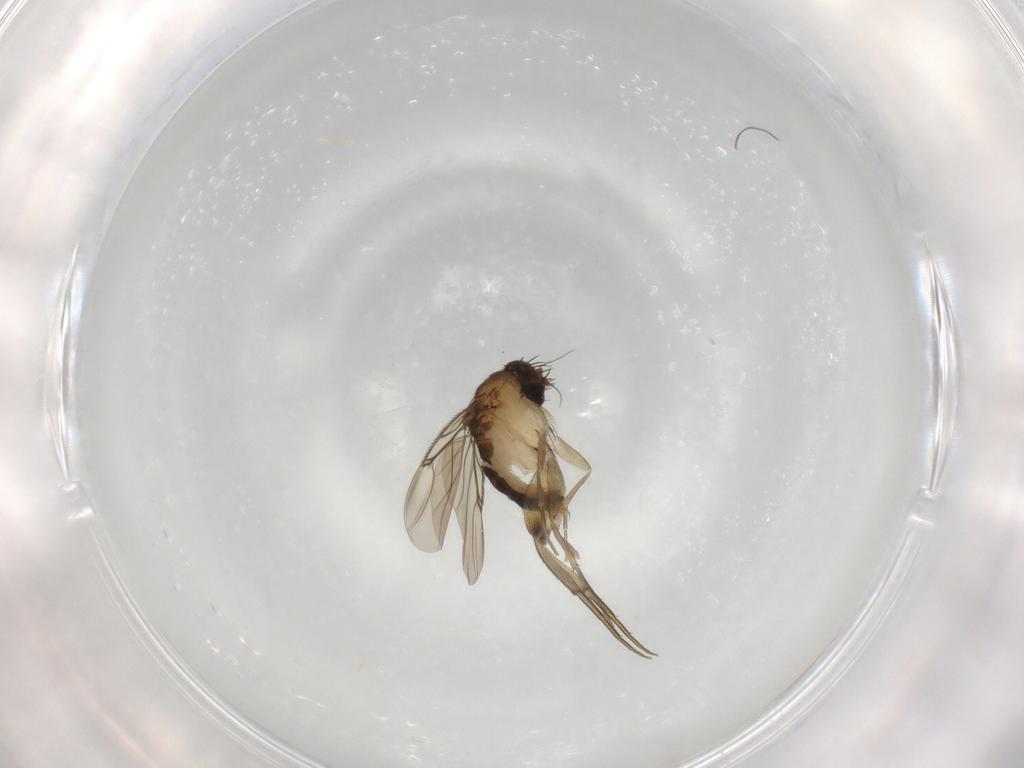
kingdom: Animalia
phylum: Arthropoda
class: Insecta
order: Diptera
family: Phoridae
